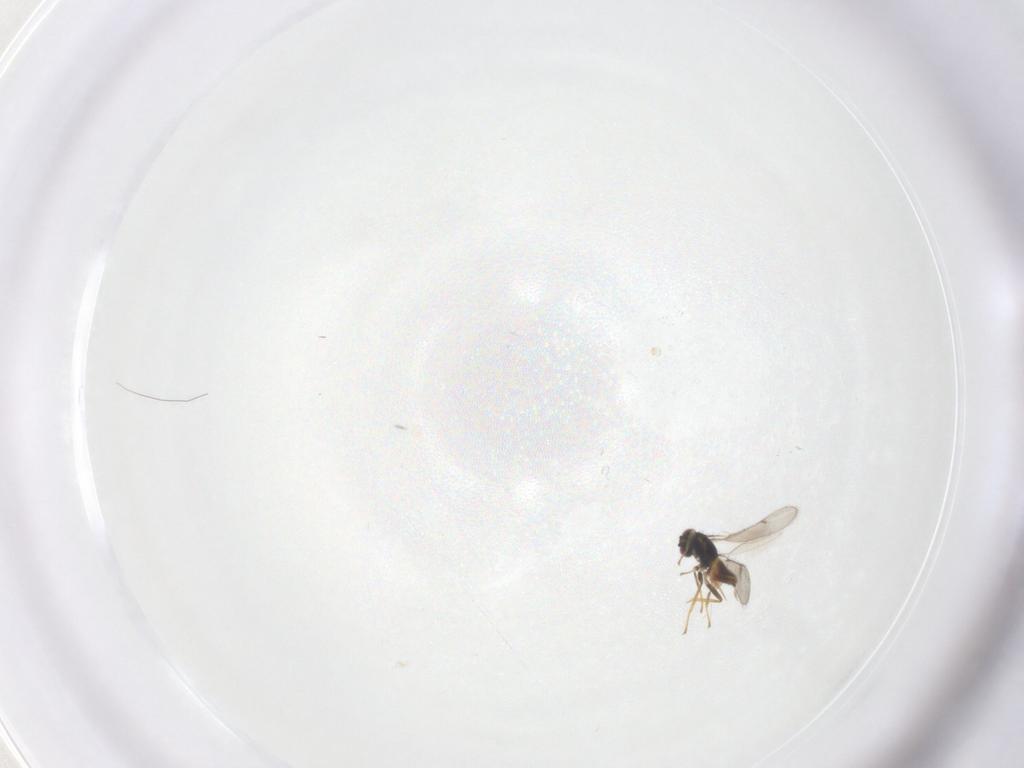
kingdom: Animalia
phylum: Arthropoda
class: Insecta
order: Hymenoptera
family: Eulophidae
